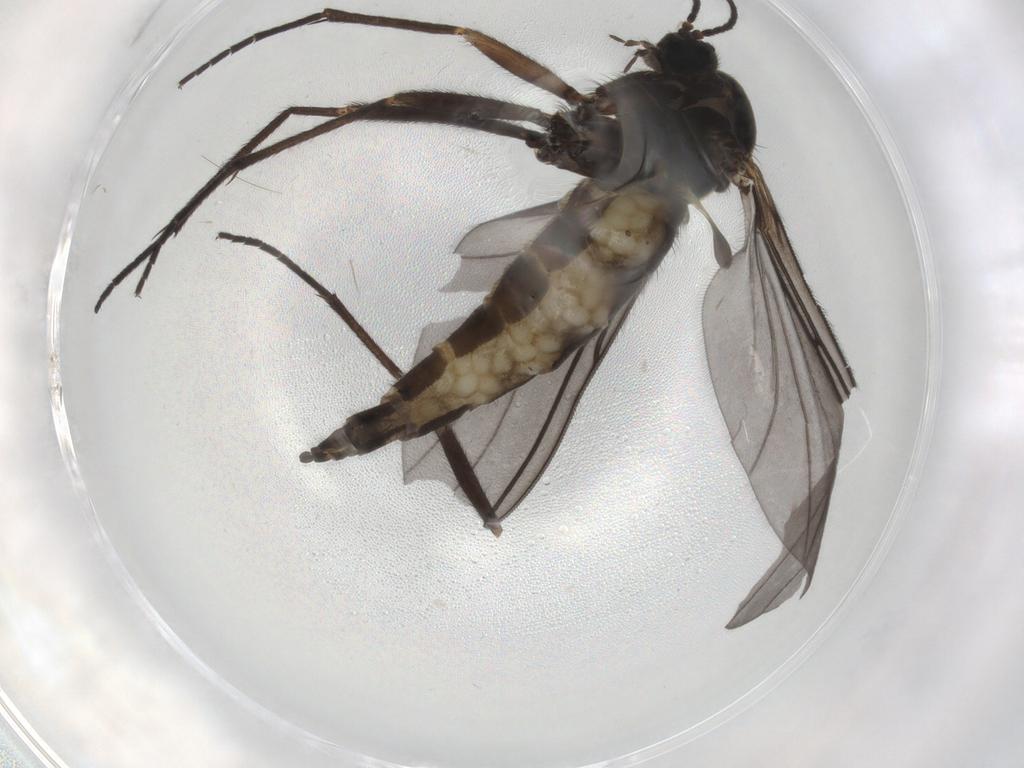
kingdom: Animalia
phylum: Arthropoda
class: Insecta
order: Diptera
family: Sciaridae
